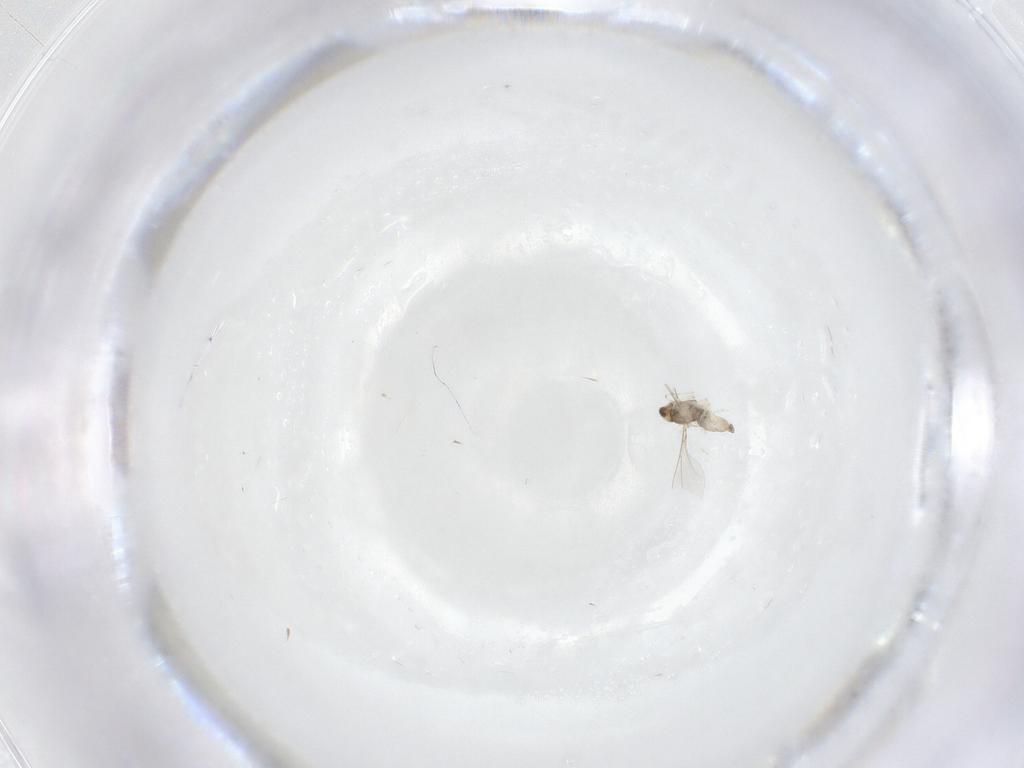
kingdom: Animalia
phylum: Arthropoda
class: Insecta
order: Diptera
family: Cecidomyiidae
